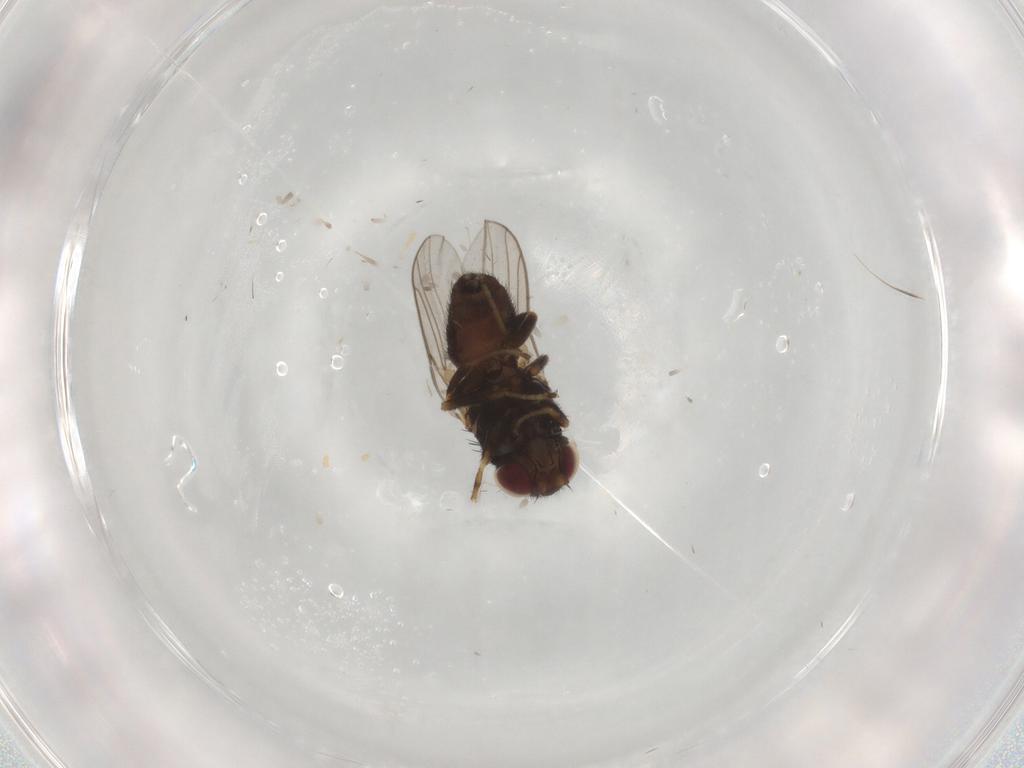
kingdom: Animalia
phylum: Arthropoda
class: Insecta
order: Diptera
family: Chloropidae
